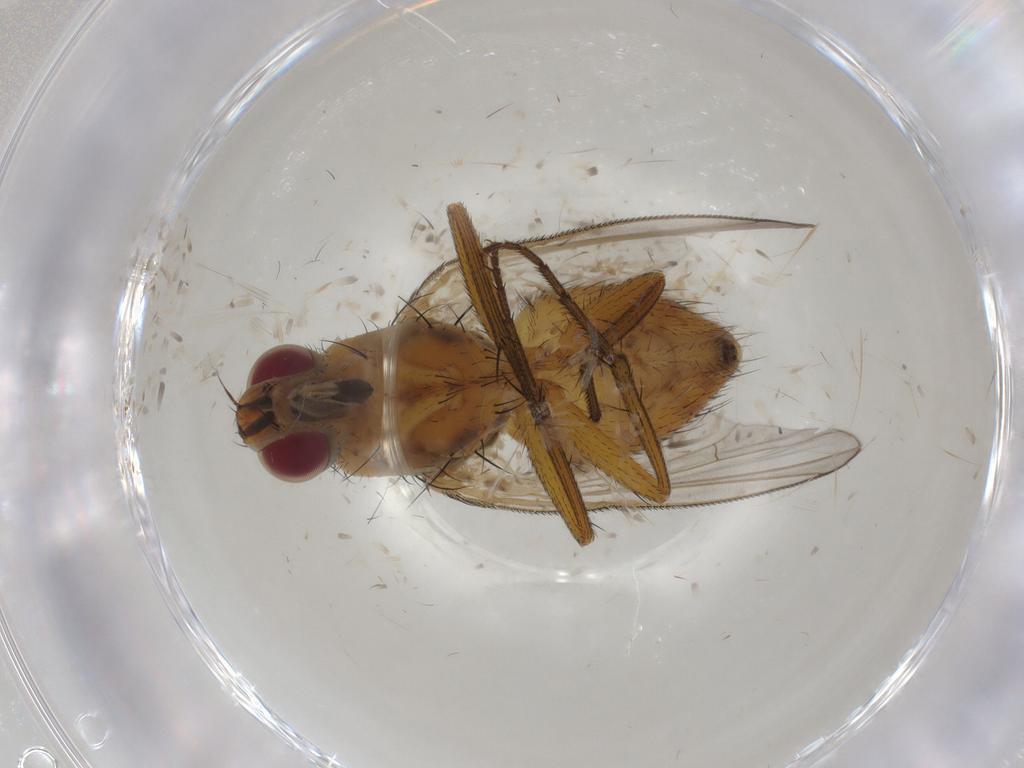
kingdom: Animalia
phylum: Arthropoda
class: Insecta
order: Diptera
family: Muscidae
